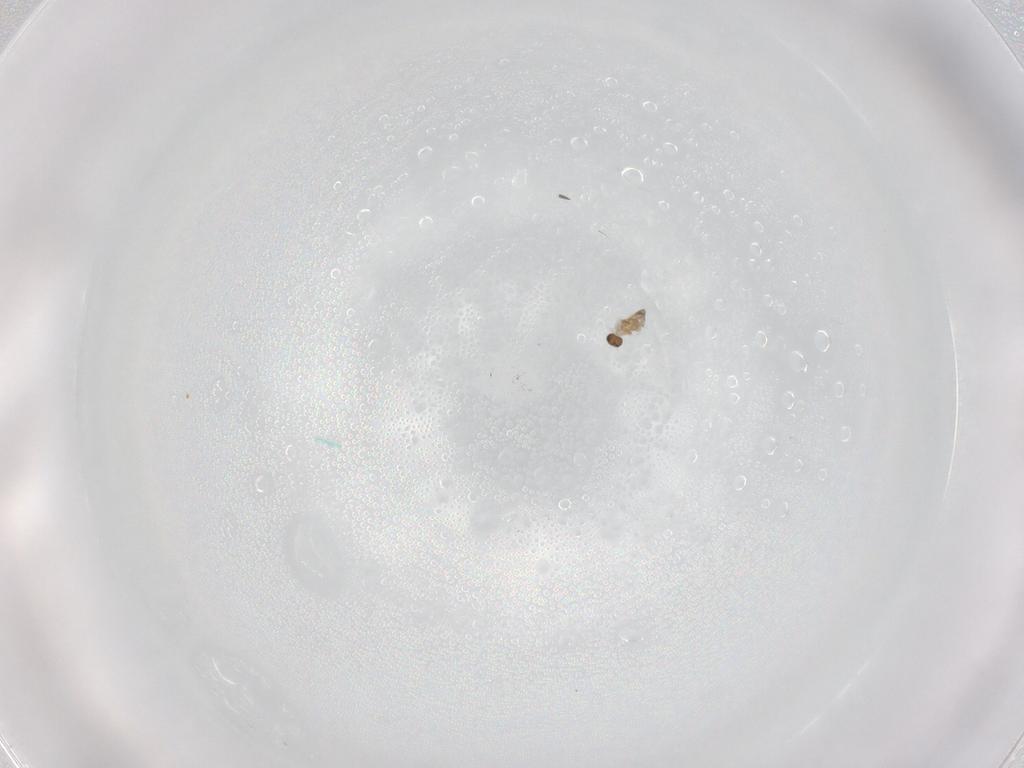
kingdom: Animalia
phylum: Arthropoda
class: Insecta
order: Hymenoptera
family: Mymaridae
